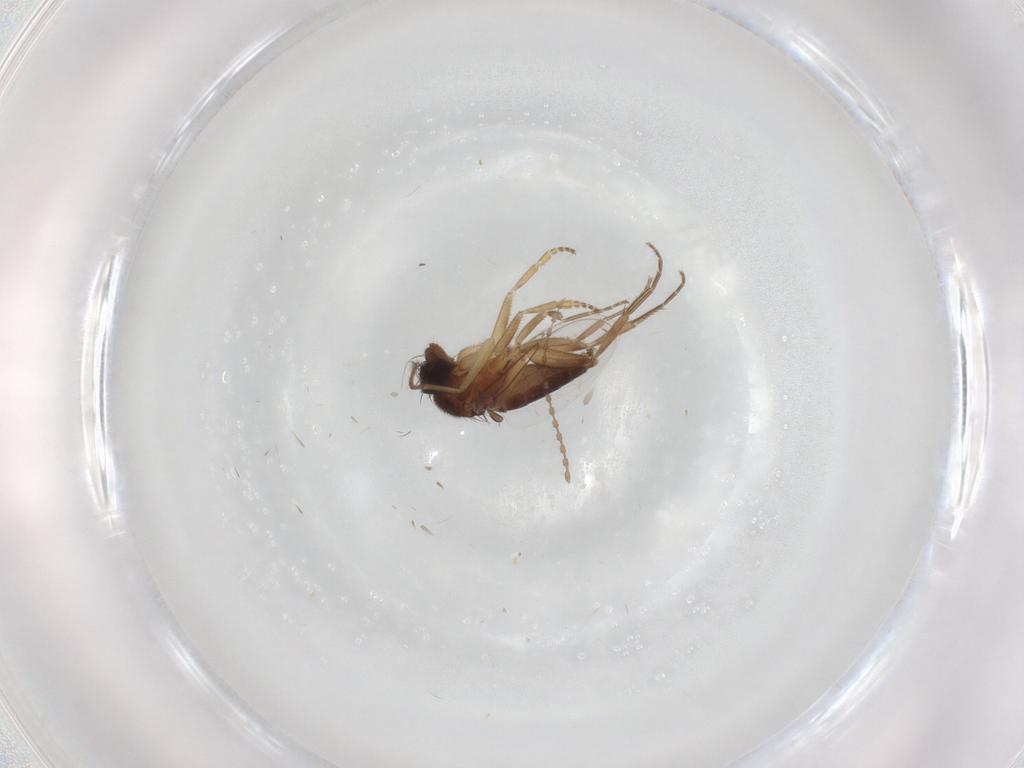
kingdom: Animalia
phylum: Arthropoda
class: Insecta
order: Diptera
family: Phoridae
